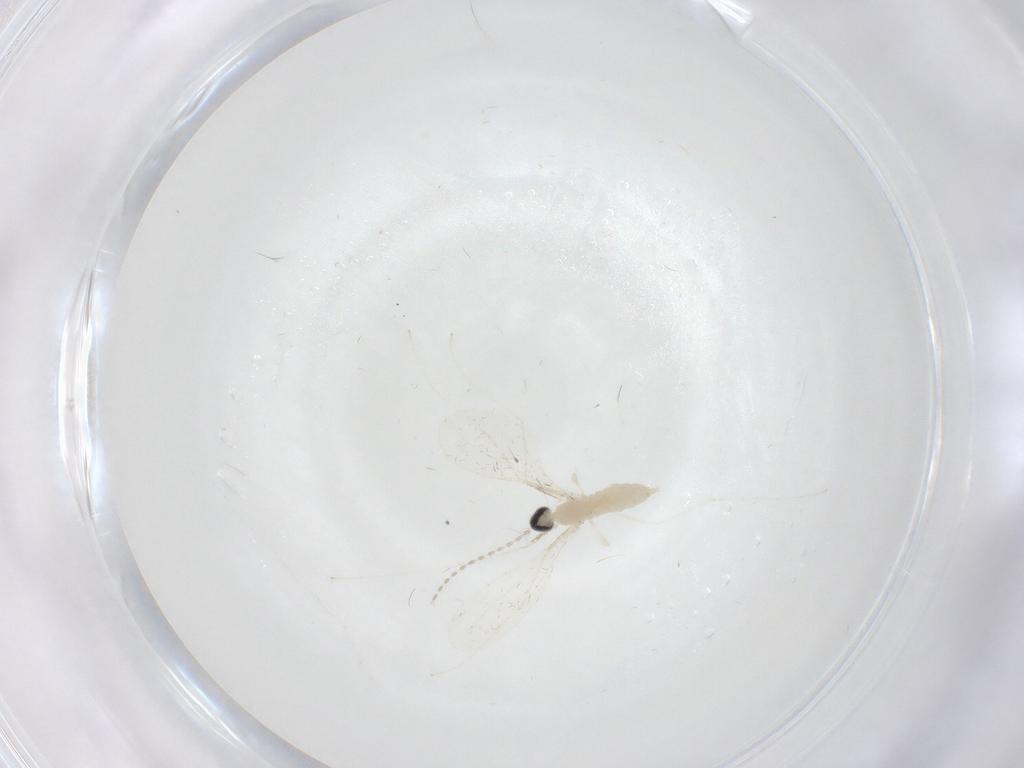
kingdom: Animalia
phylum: Arthropoda
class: Insecta
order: Diptera
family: Cecidomyiidae
